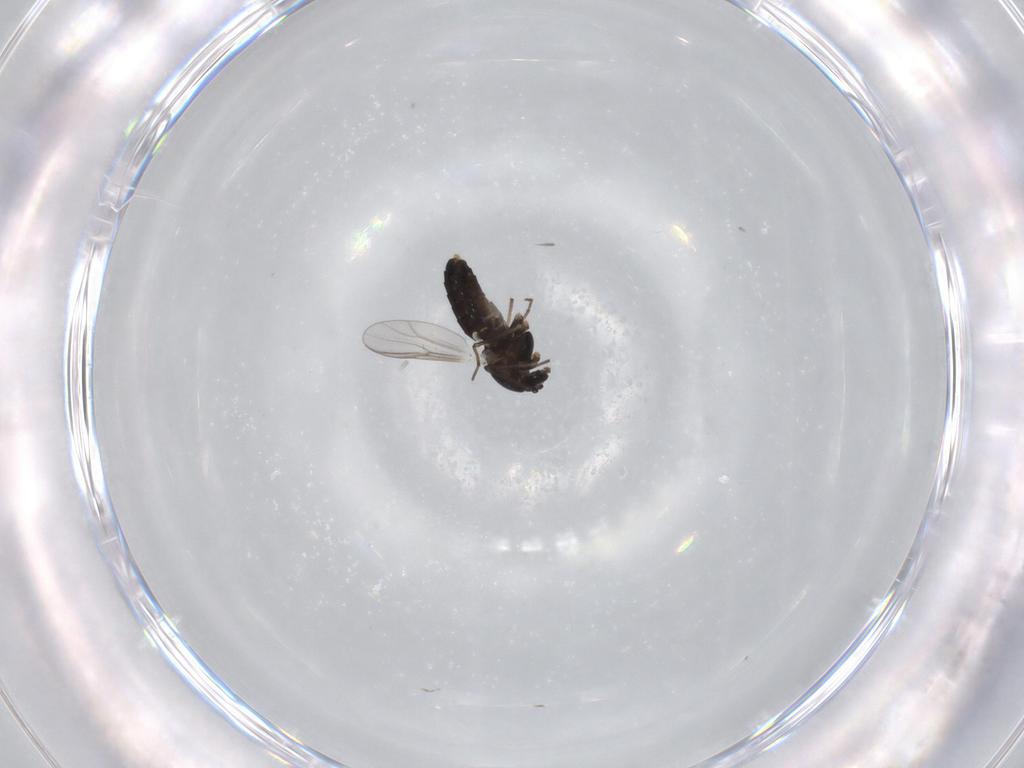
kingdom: Animalia
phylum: Arthropoda
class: Insecta
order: Diptera
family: Chironomidae
